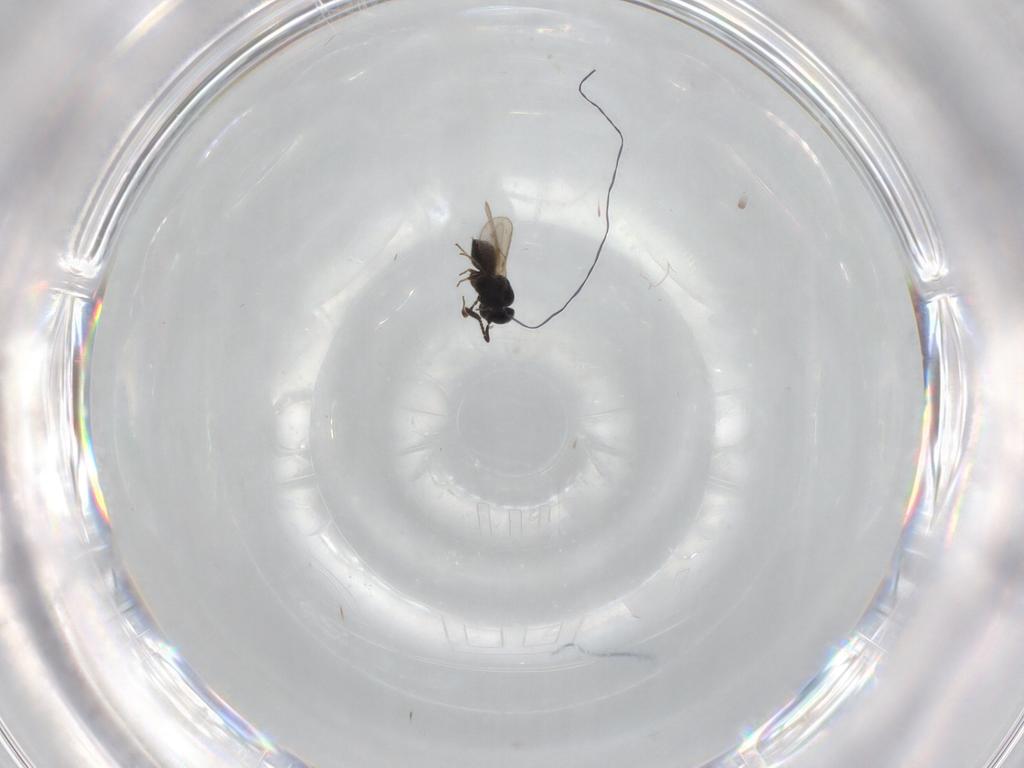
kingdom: Animalia
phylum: Arthropoda
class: Insecta
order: Hymenoptera
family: Scelionidae
